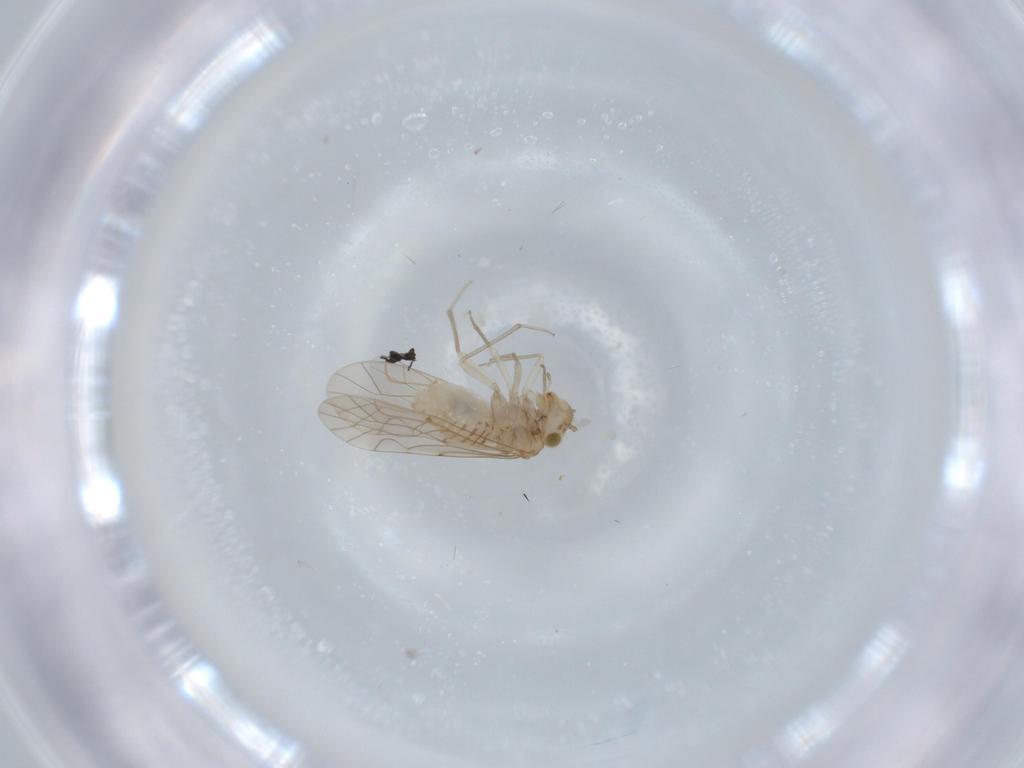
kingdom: Animalia
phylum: Arthropoda
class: Insecta
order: Psocodea
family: Lachesillidae
